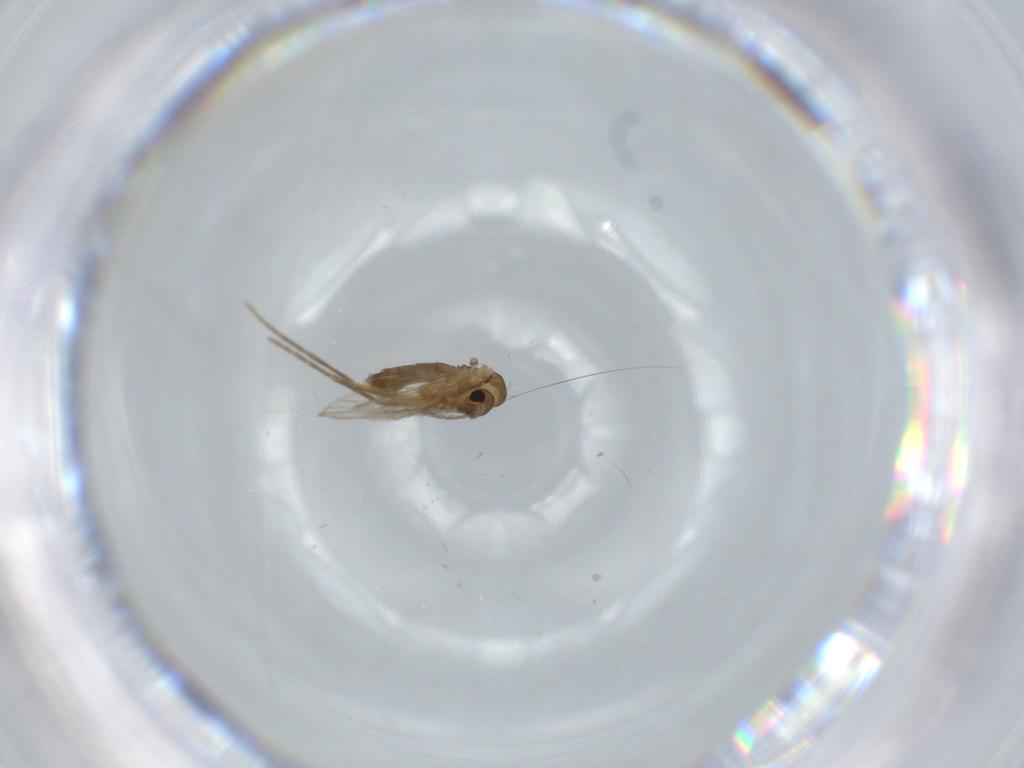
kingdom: Animalia
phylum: Arthropoda
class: Insecta
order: Diptera
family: Psychodidae
